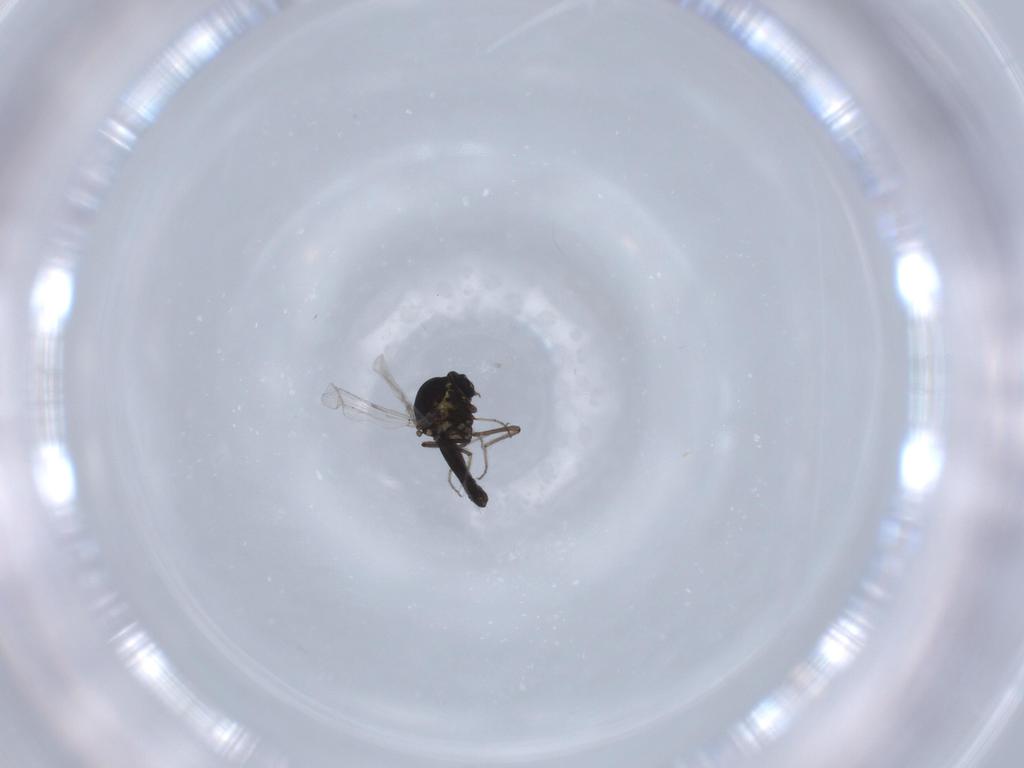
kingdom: Animalia
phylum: Arthropoda
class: Insecta
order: Diptera
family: Ceratopogonidae
